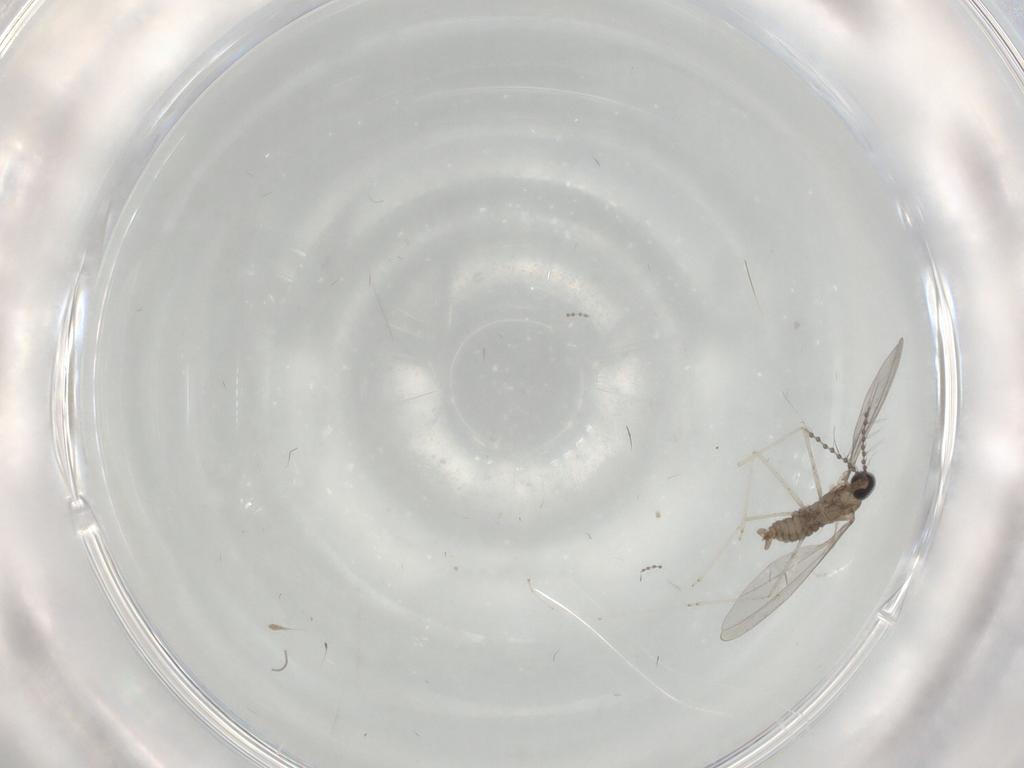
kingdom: Animalia
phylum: Arthropoda
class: Insecta
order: Diptera
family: Cecidomyiidae
